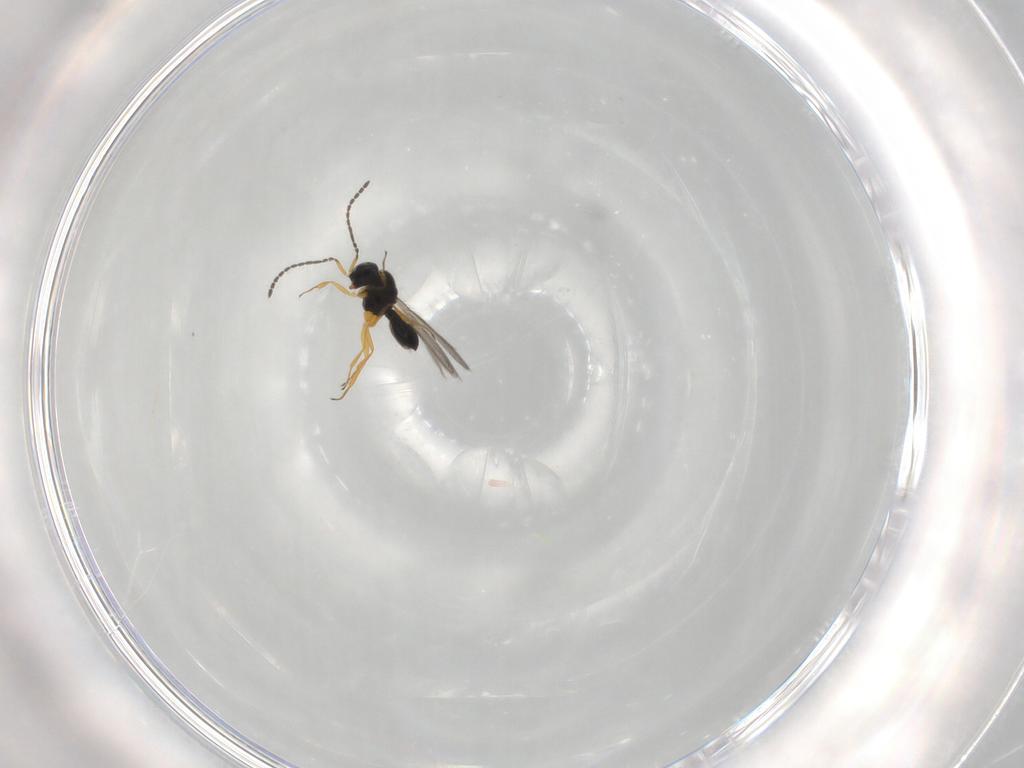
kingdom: Animalia
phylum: Arthropoda
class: Insecta
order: Hymenoptera
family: Scelionidae
